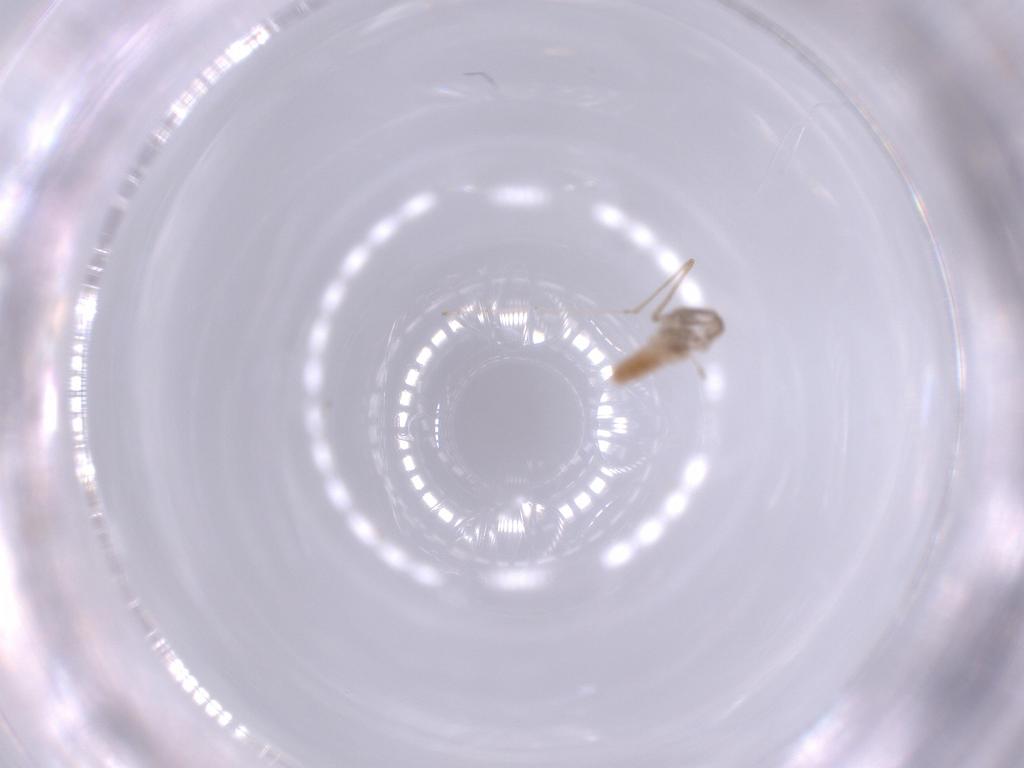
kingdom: Animalia
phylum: Arthropoda
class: Insecta
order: Diptera
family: Cecidomyiidae
